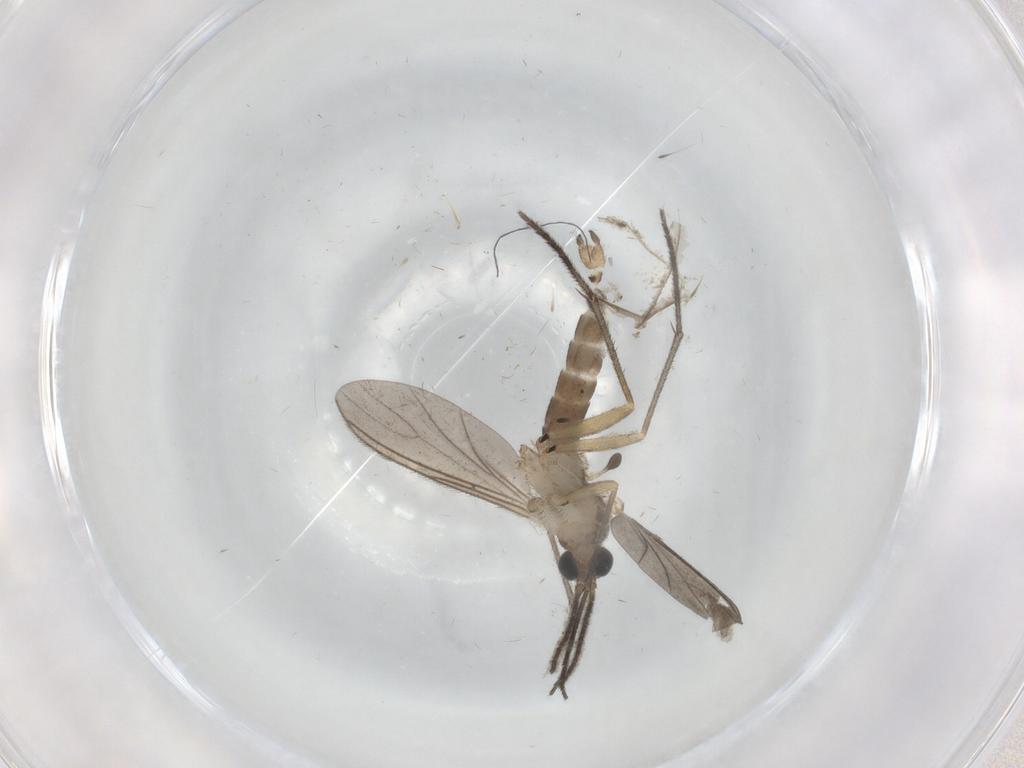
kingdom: Animalia
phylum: Arthropoda
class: Insecta
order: Diptera
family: Sciaridae
